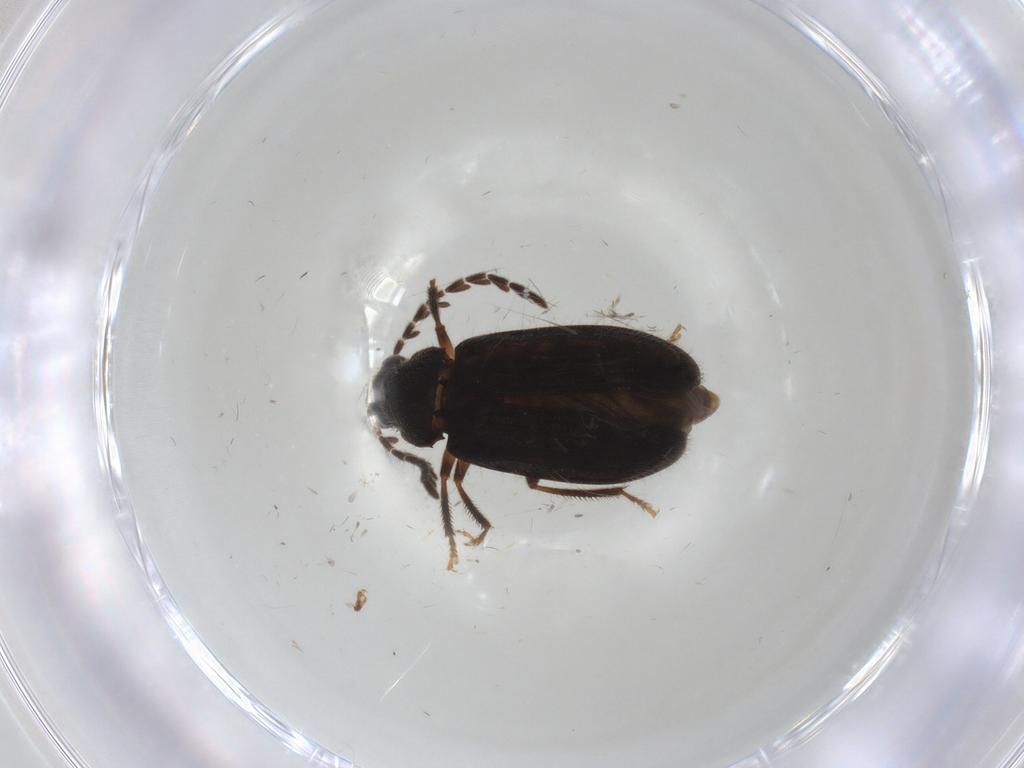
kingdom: Animalia
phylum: Arthropoda
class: Insecta
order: Coleoptera
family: Ptilodactylidae
